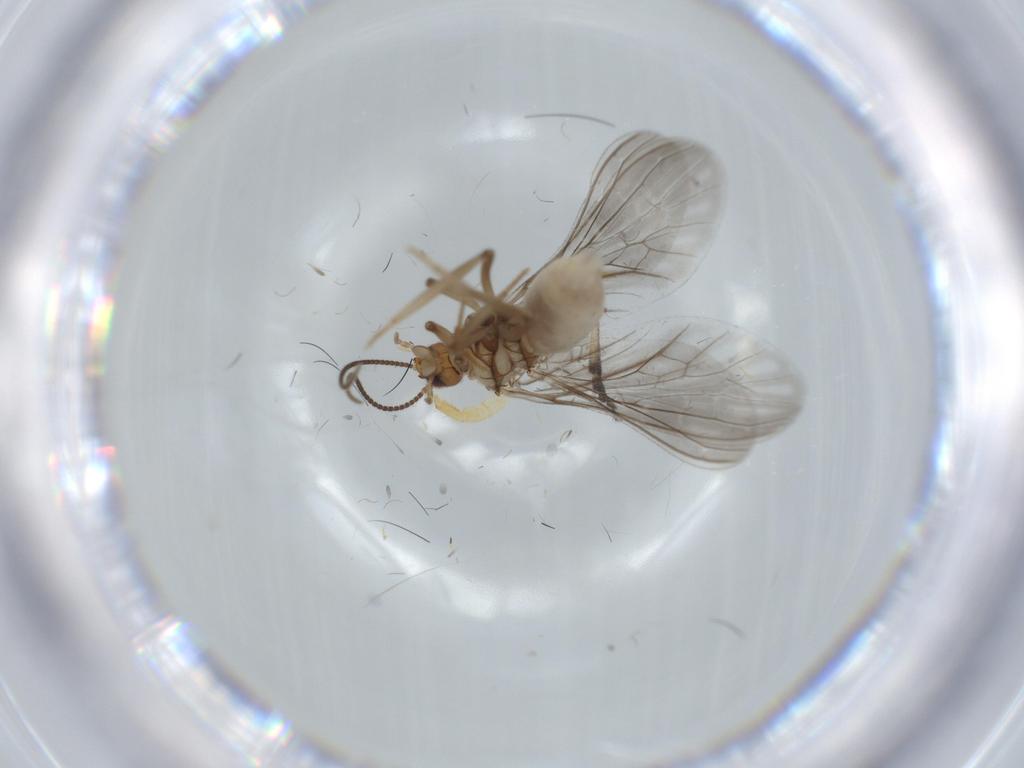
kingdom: Animalia
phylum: Arthropoda
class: Insecta
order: Neuroptera
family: Coniopterygidae
